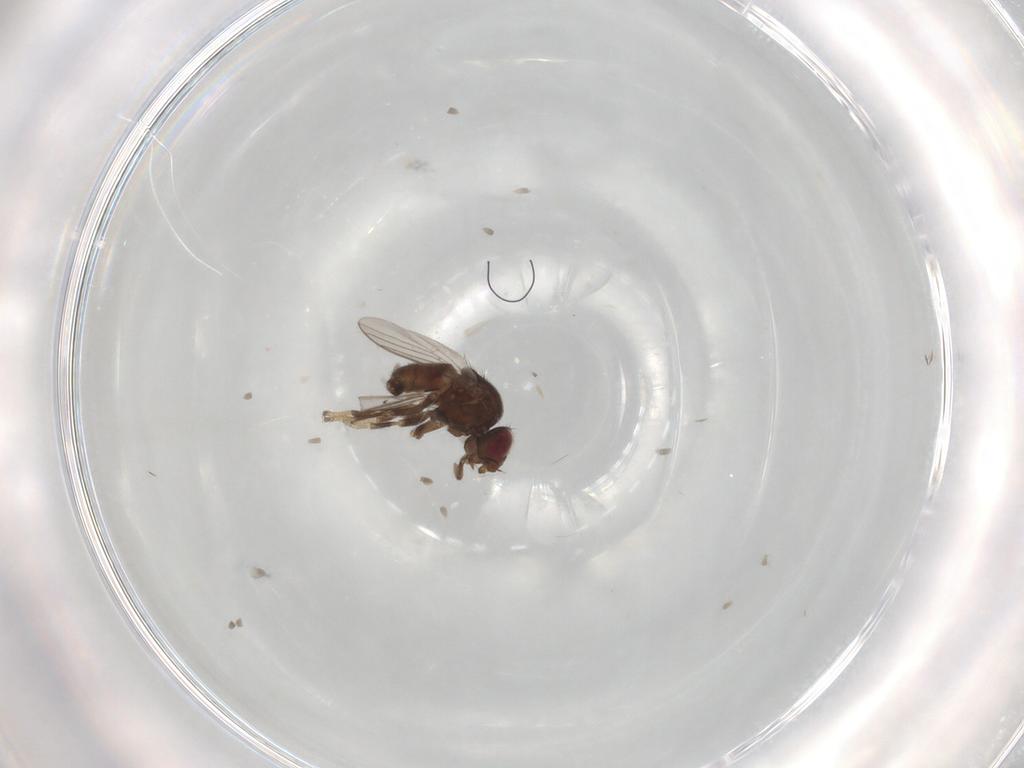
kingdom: Animalia
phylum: Arthropoda
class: Insecta
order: Diptera
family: Chloropidae
